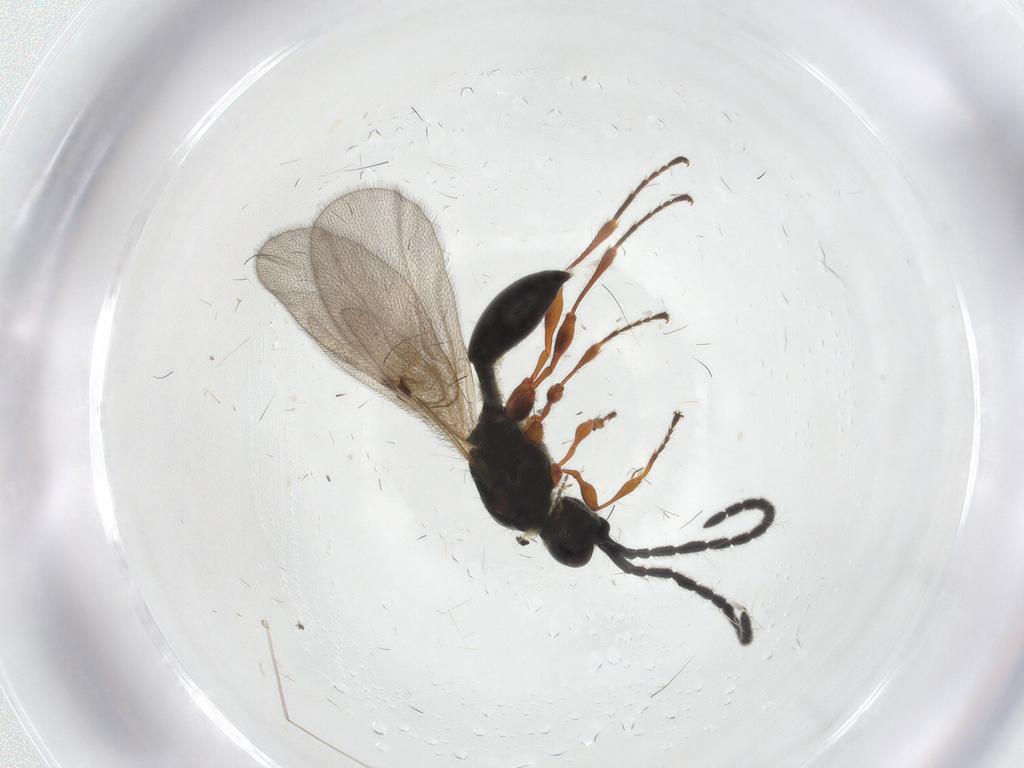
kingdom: Animalia
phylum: Arthropoda
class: Insecta
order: Hymenoptera
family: Diapriidae
